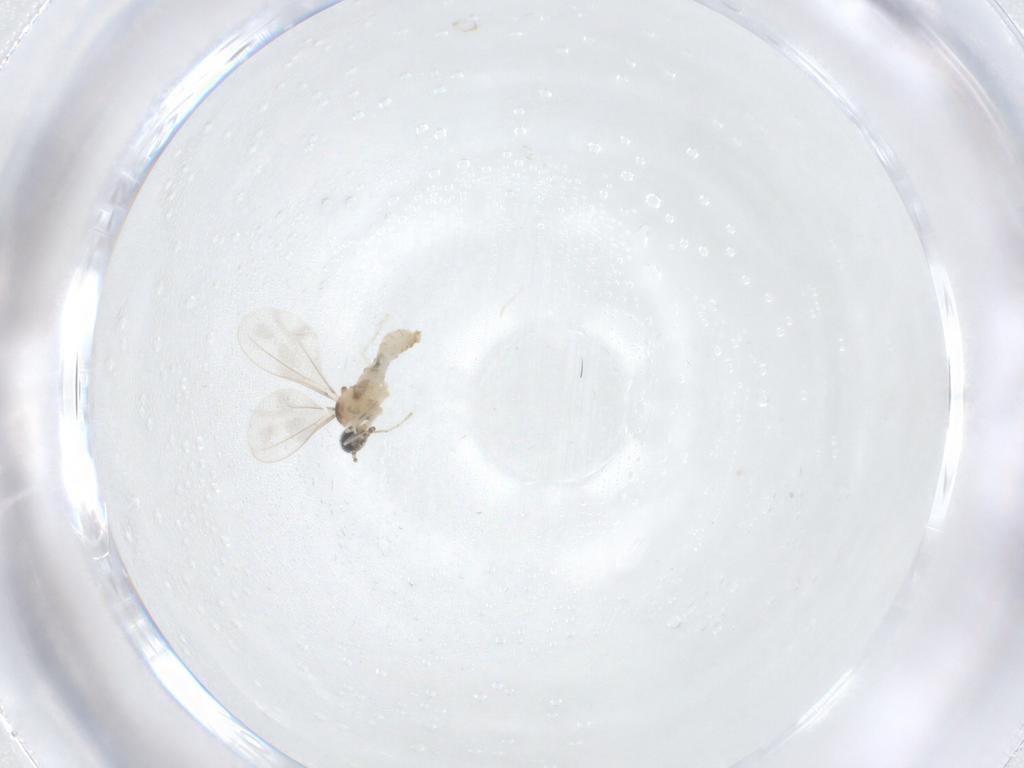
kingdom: Animalia
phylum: Arthropoda
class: Insecta
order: Diptera
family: Cecidomyiidae
